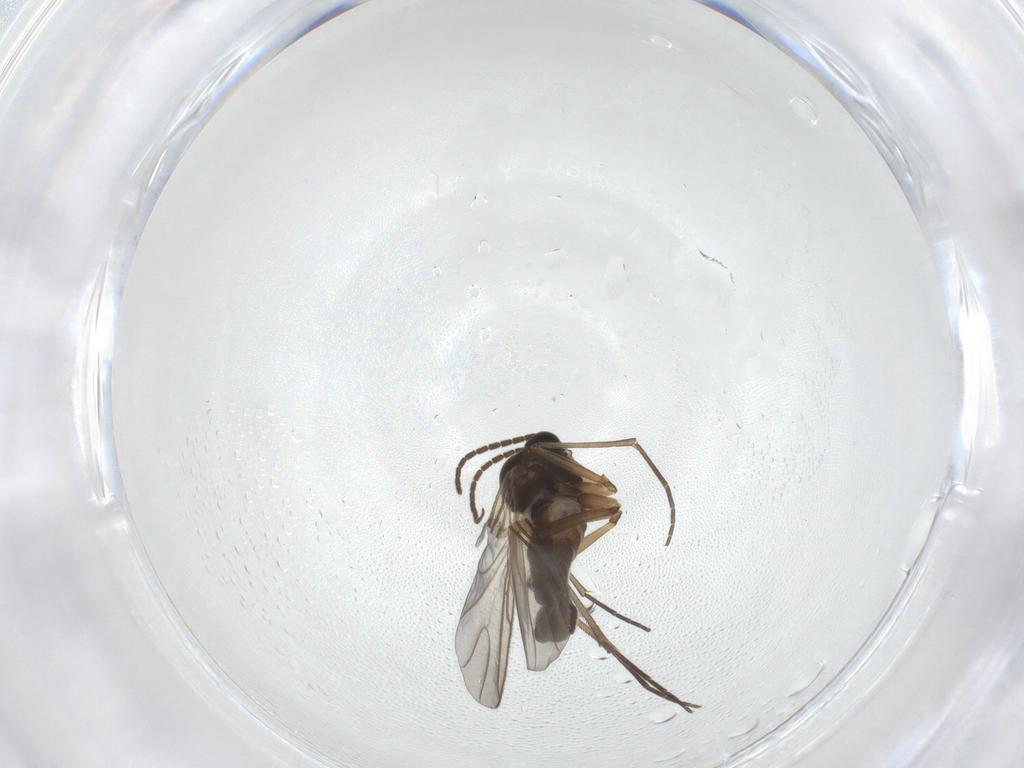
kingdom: Animalia
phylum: Arthropoda
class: Insecta
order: Diptera
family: Sciaridae
